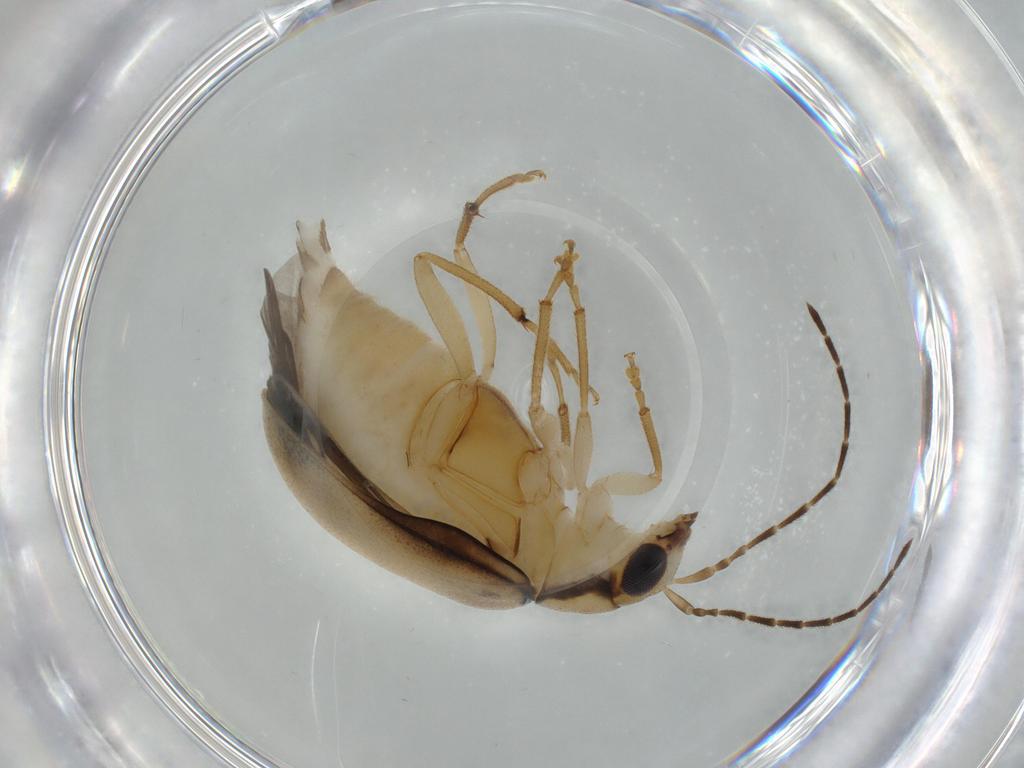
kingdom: Animalia
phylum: Arthropoda
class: Insecta
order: Coleoptera
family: Chrysomelidae
